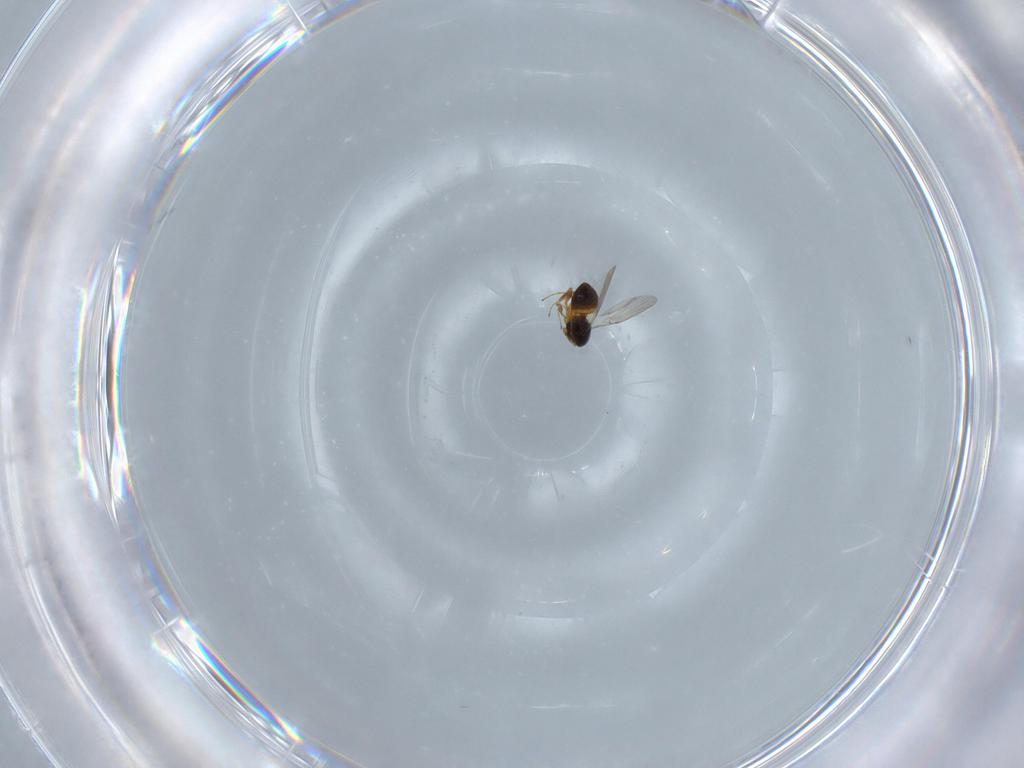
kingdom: Animalia
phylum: Arthropoda
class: Insecta
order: Hymenoptera
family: Platygastridae
